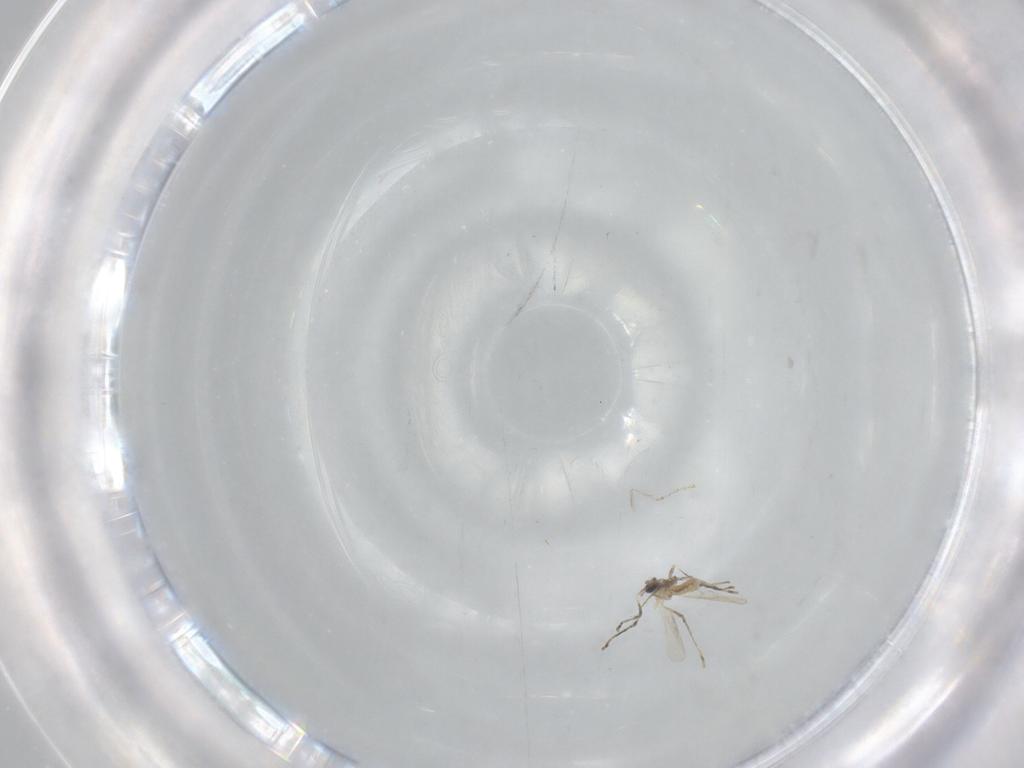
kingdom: Animalia
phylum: Arthropoda
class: Insecta
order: Diptera
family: Cecidomyiidae
